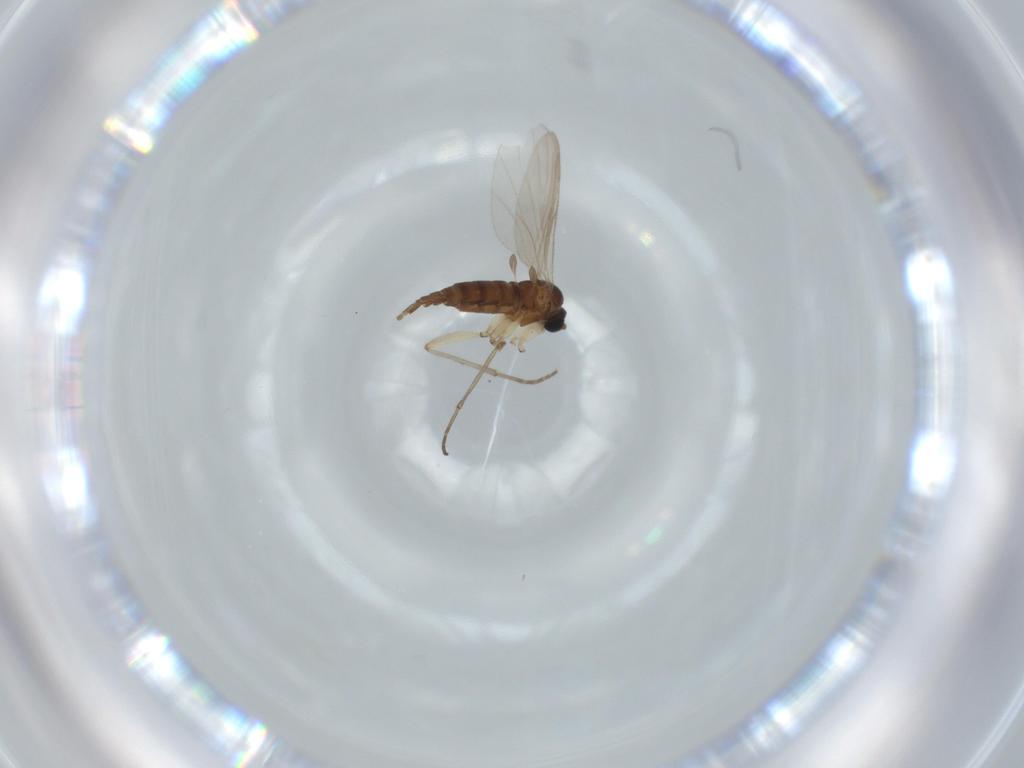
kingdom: Animalia
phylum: Arthropoda
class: Insecta
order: Diptera
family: Sciaridae
